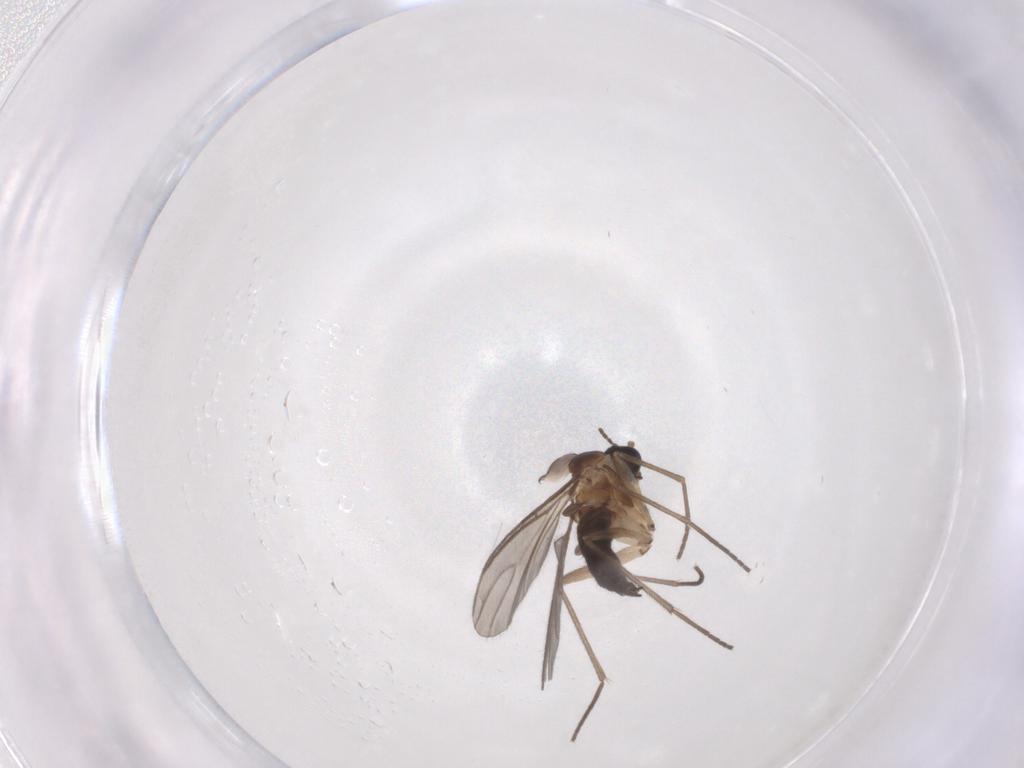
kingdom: Animalia
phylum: Arthropoda
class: Insecta
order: Diptera
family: Sciaridae
